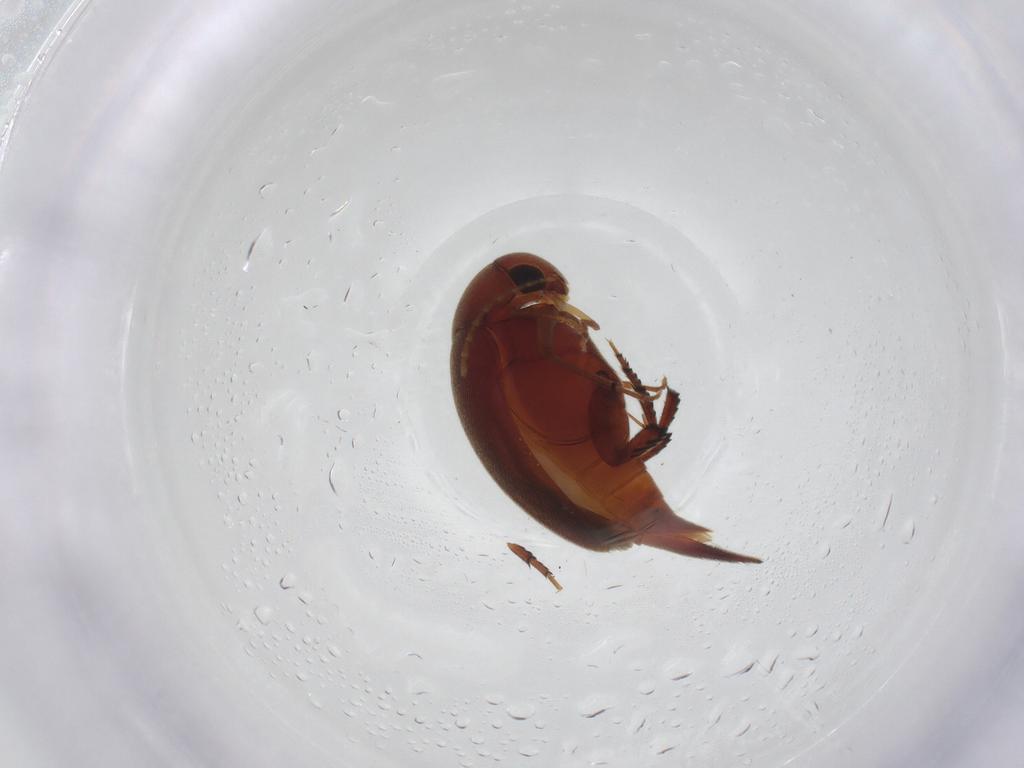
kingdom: Animalia
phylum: Arthropoda
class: Insecta
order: Coleoptera
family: Mordellidae
